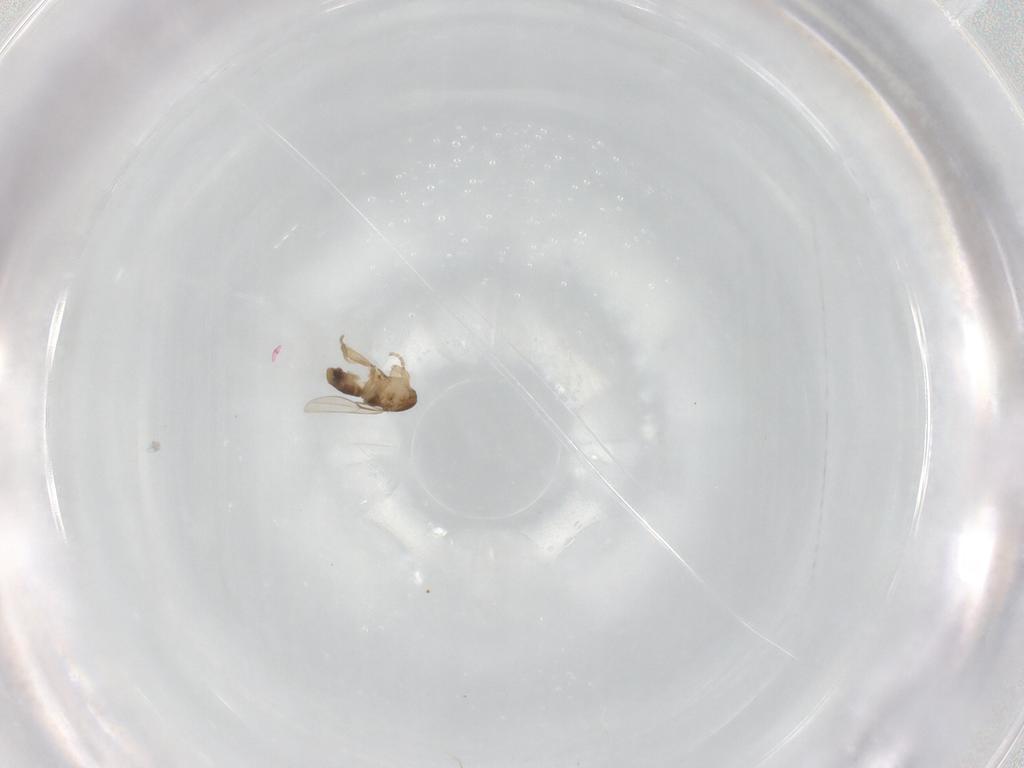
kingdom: Animalia
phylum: Arthropoda
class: Insecta
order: Diptera
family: Phoridae
